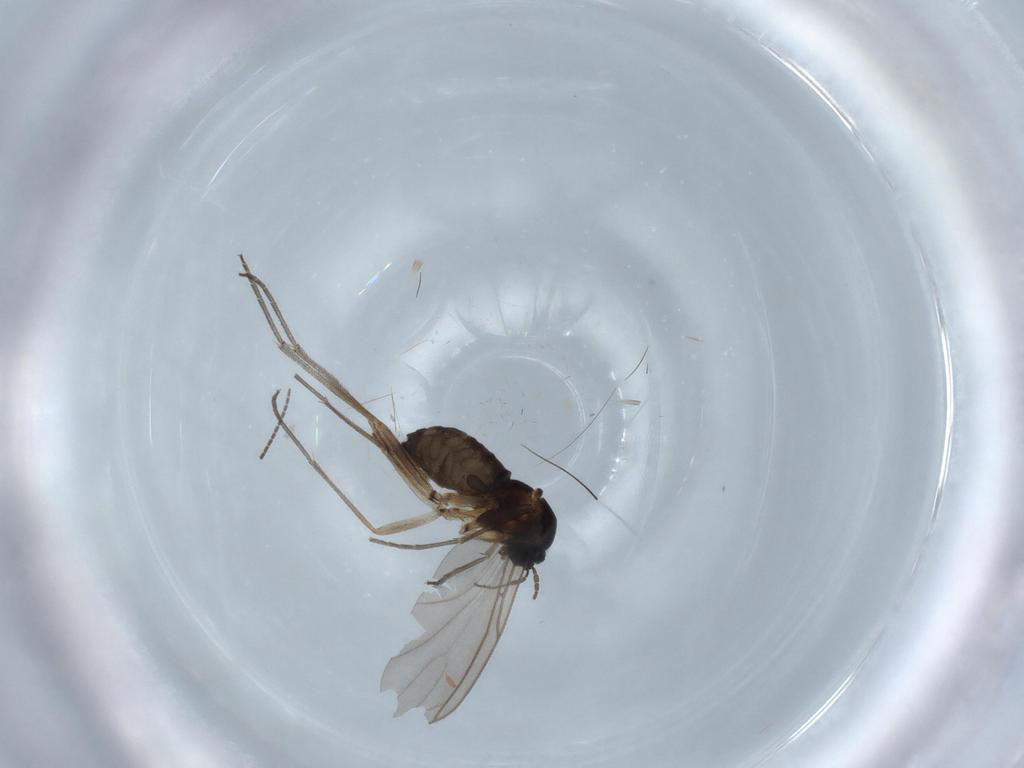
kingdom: Animalia
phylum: Arthropoda
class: Insecta
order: Diptera
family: Sciaridae
